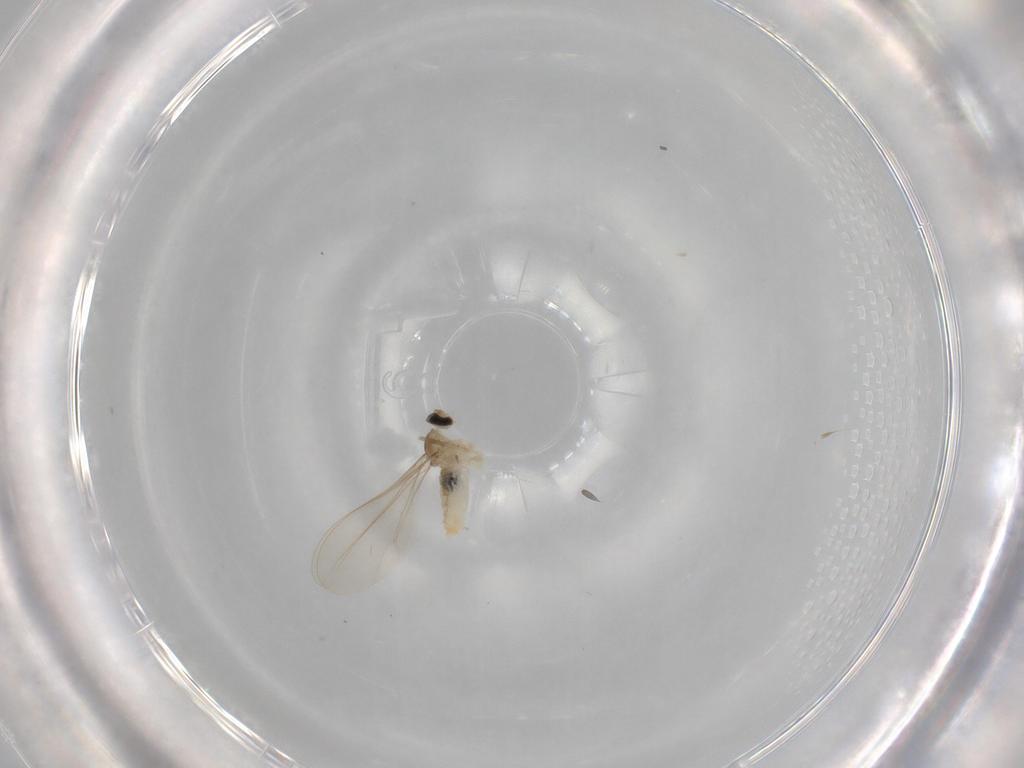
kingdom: Animalia
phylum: Arthropoda
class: Insecta
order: Diptera
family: Cecidomyiidae
